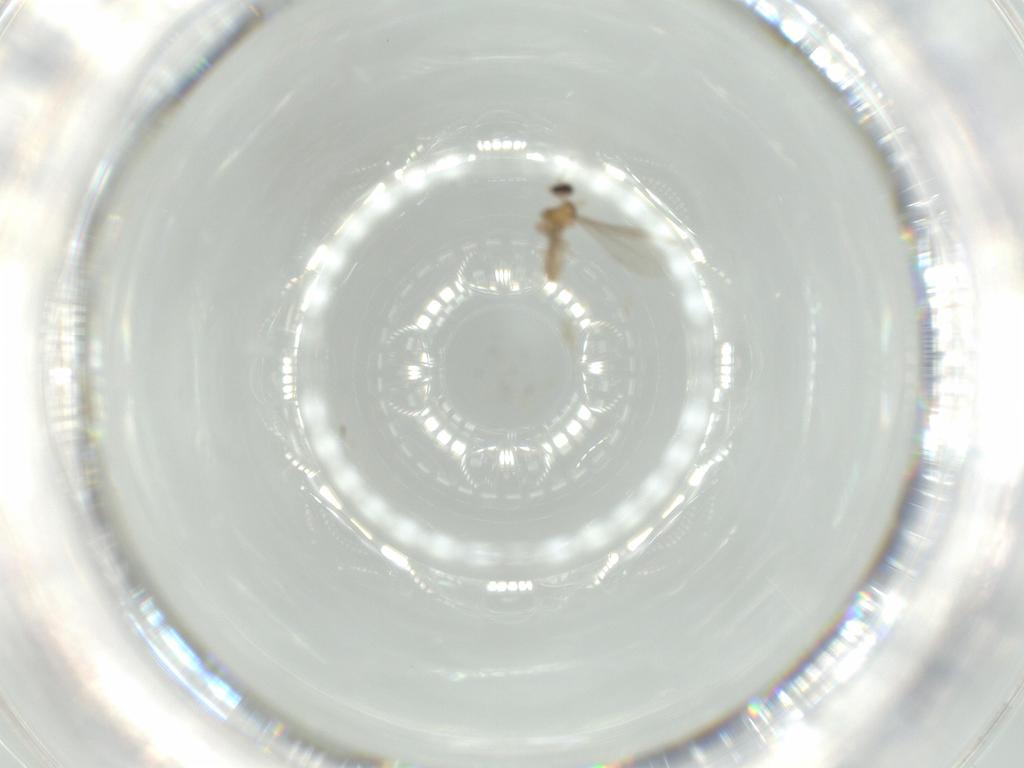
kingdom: Animalia
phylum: Arthropoda
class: Insecta
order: Diptera
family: Cecidomyiidae
